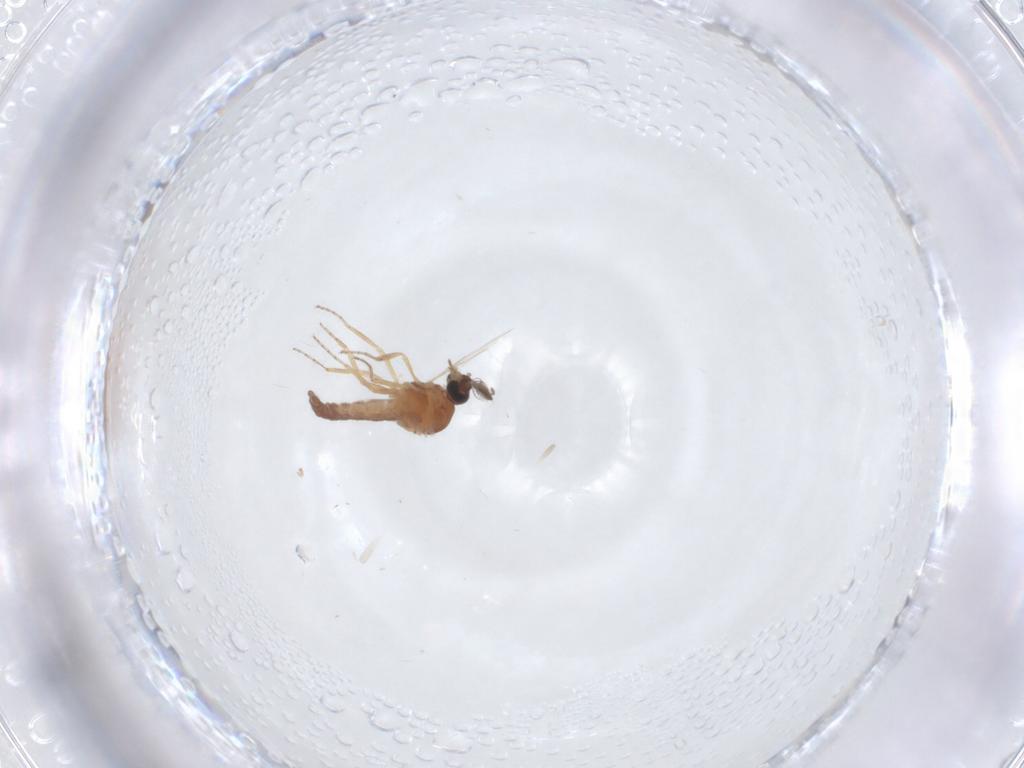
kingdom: Animalia
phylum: Arthropoda
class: Insecta
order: Diptera
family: Ceratopogonidae
